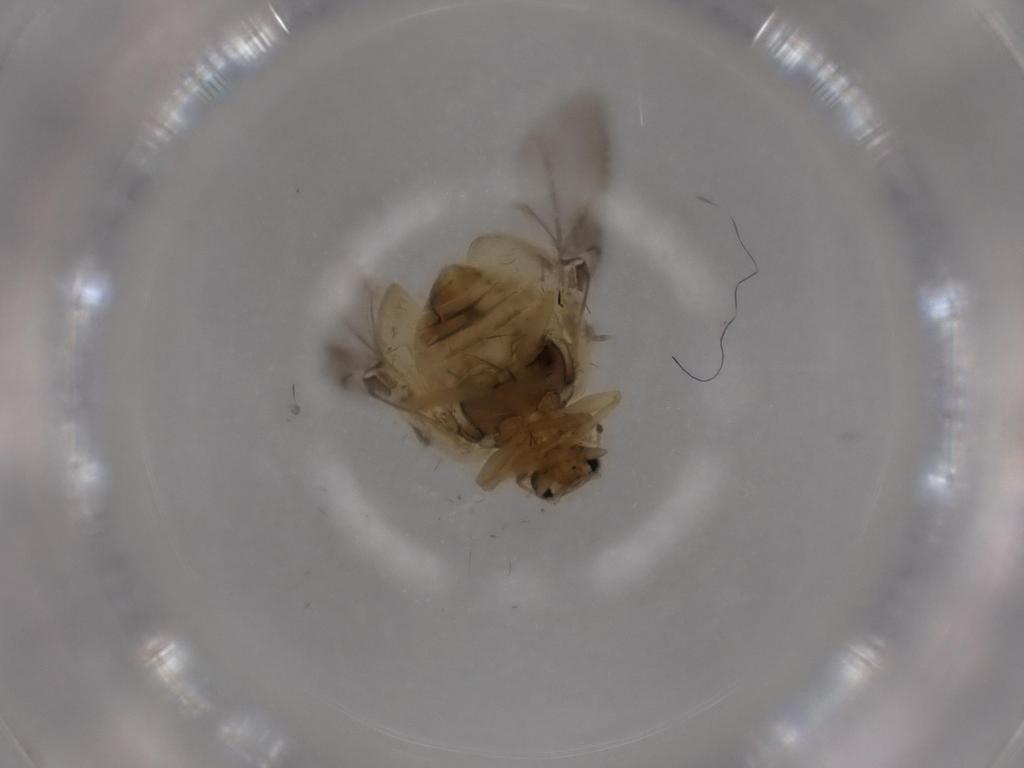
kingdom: Animalia
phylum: Arthropoda
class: Insecta
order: Coleoptera
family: Coccinellidae
